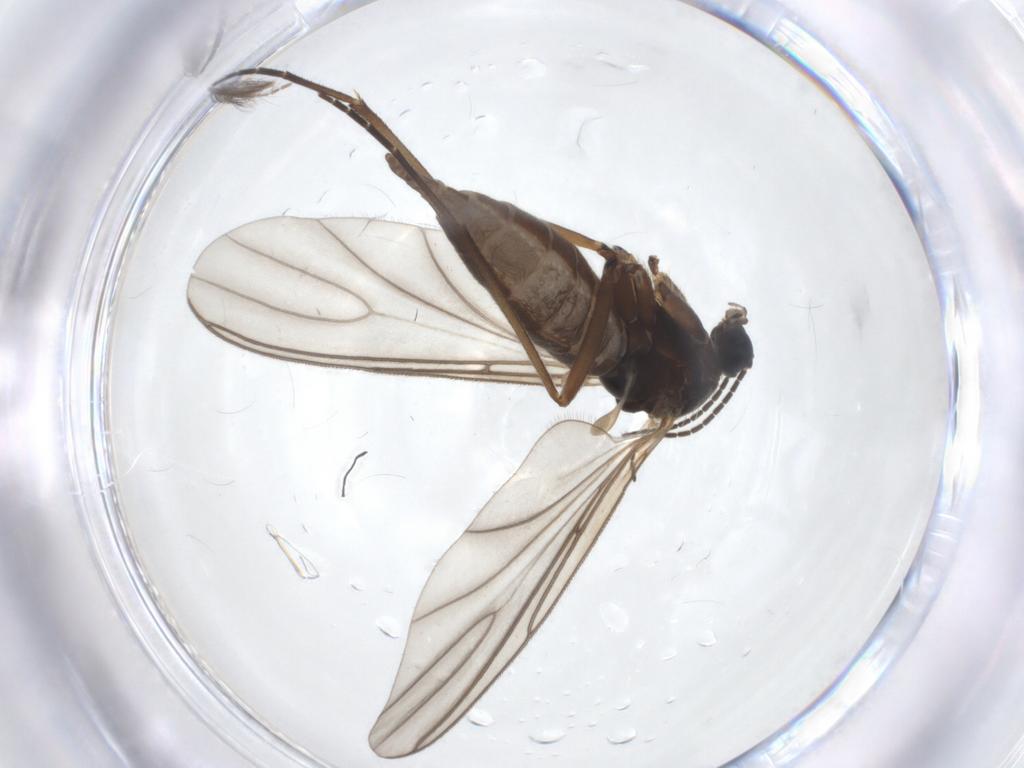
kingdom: Animalia
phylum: Arthropoda
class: Insecta
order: Diptera
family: Sciaridae
